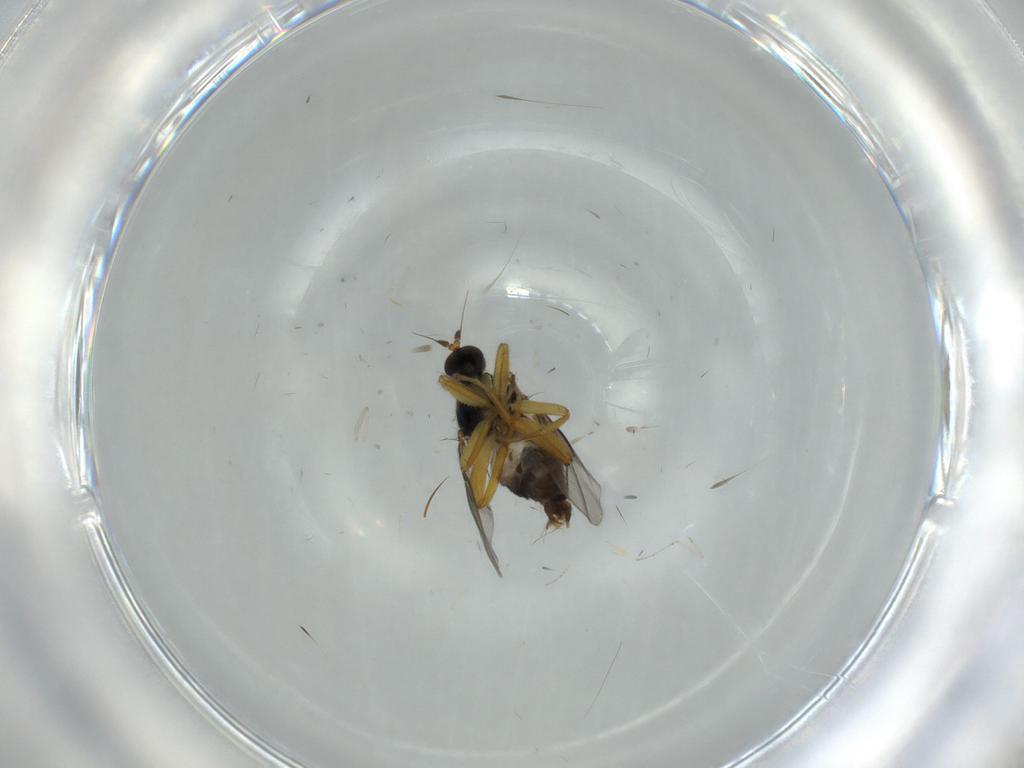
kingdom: Animalia
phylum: Arthropoda
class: Insecta
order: Diptera
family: Hybotidae
